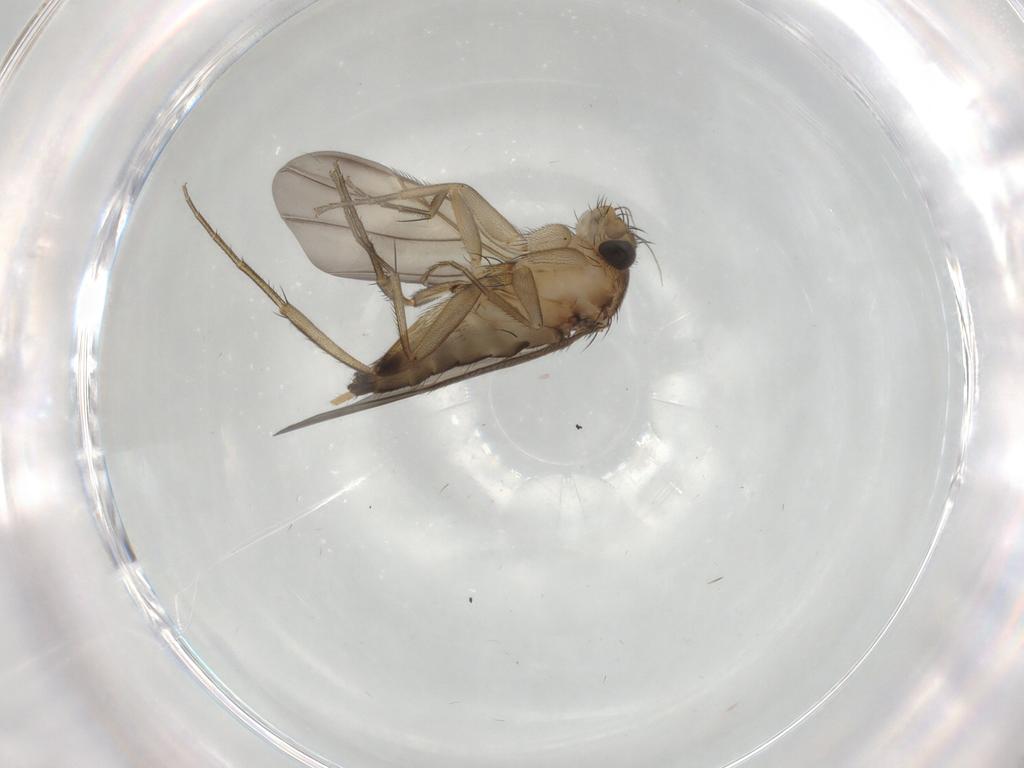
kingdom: Animalia
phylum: Arthropoda
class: Insecta
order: Diptera
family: Phoridae
